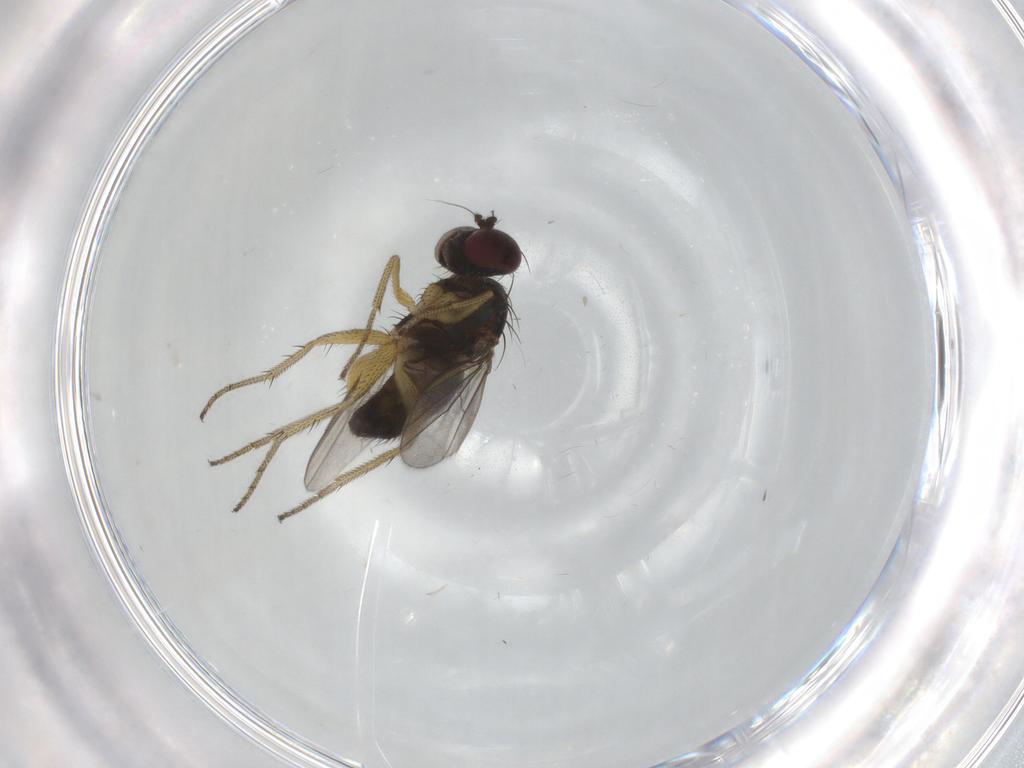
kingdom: Animalia
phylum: Arthropoda
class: Insecta
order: Diptera
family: Dolichopodidae
